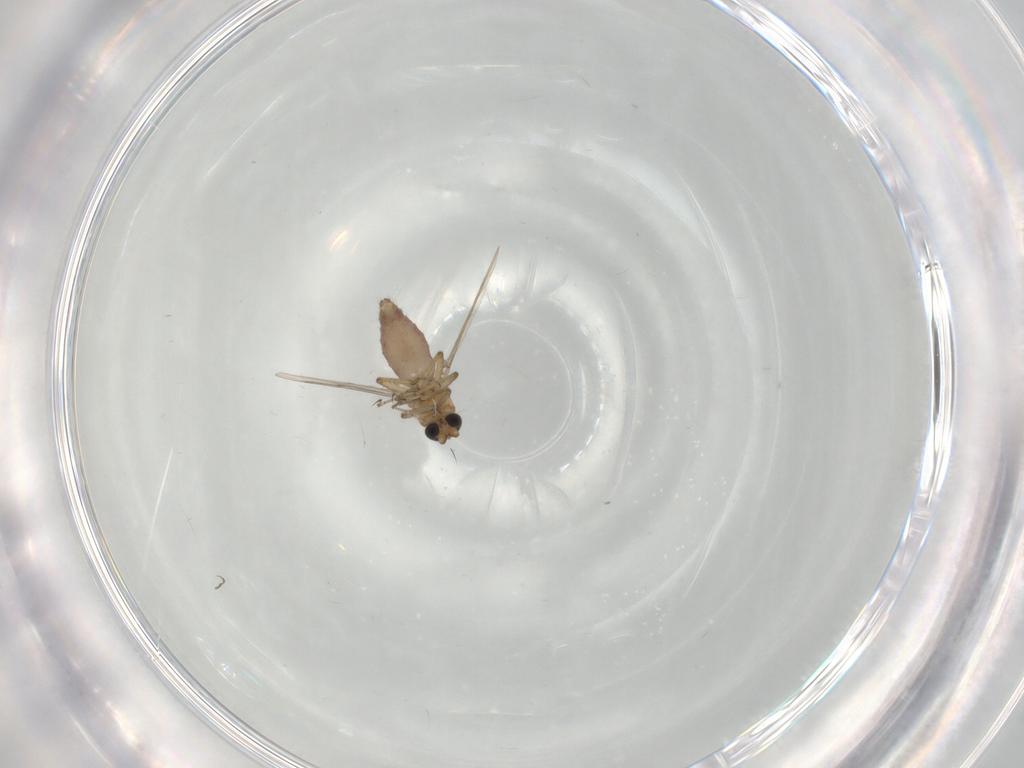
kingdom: Animalia
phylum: Arthropoda
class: Insecta
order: Diptera
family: Ceratopogonidae
